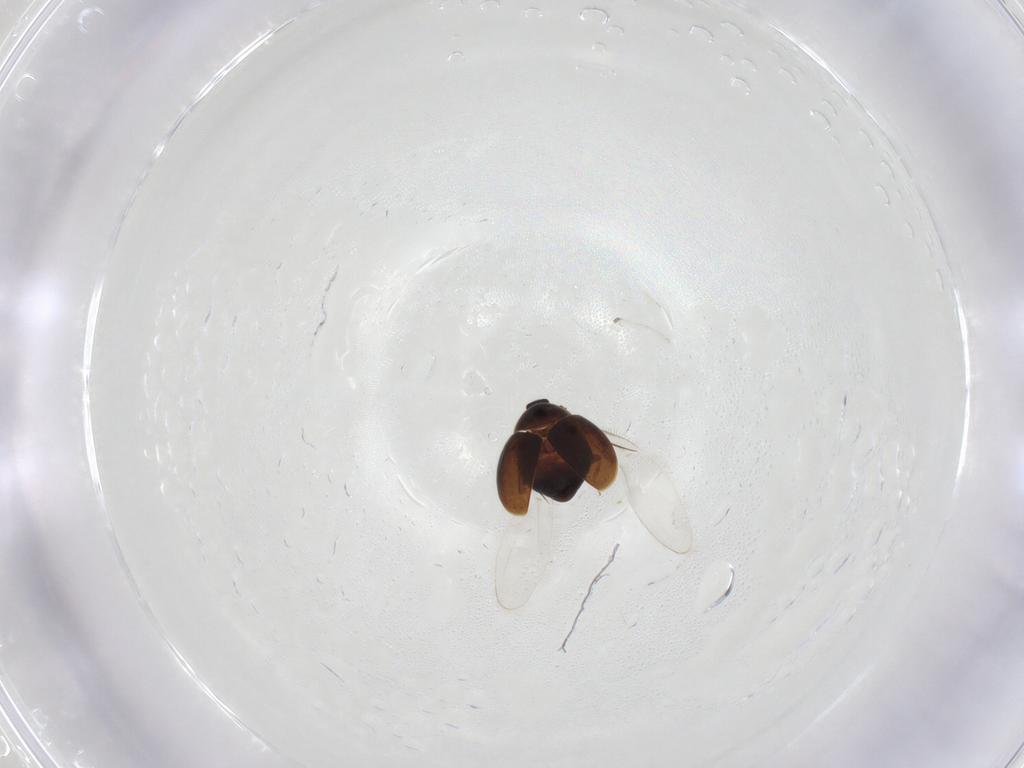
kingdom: Animalia
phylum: Arthropoda
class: Insecta
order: Coleoptera
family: Corylophidae
